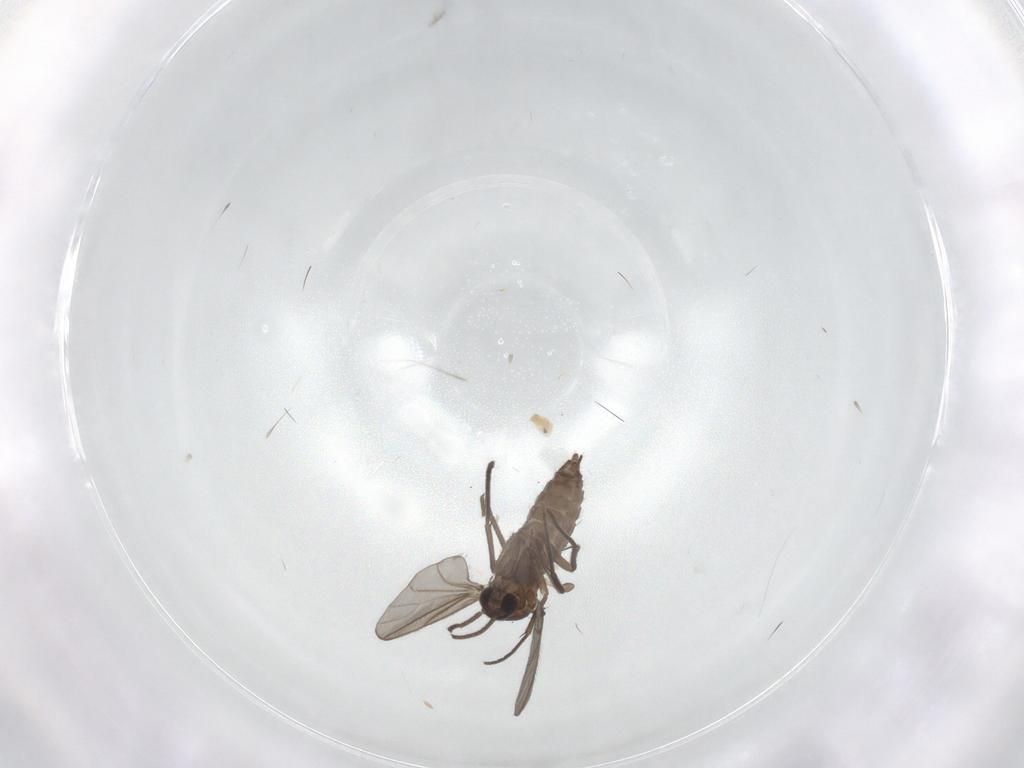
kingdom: Animalia
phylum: Arthropoda
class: Insecta
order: Diptera
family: Sciaridae
